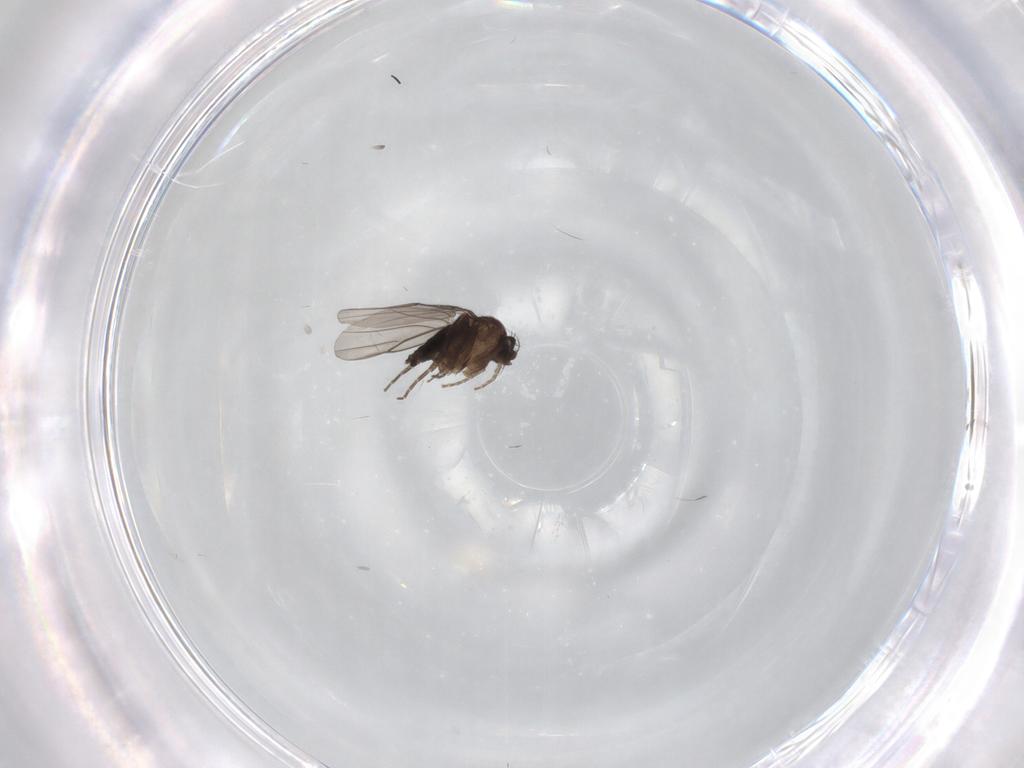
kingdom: Animalia
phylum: Arthropoda
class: Insecta
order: Diptera
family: Phoridae
